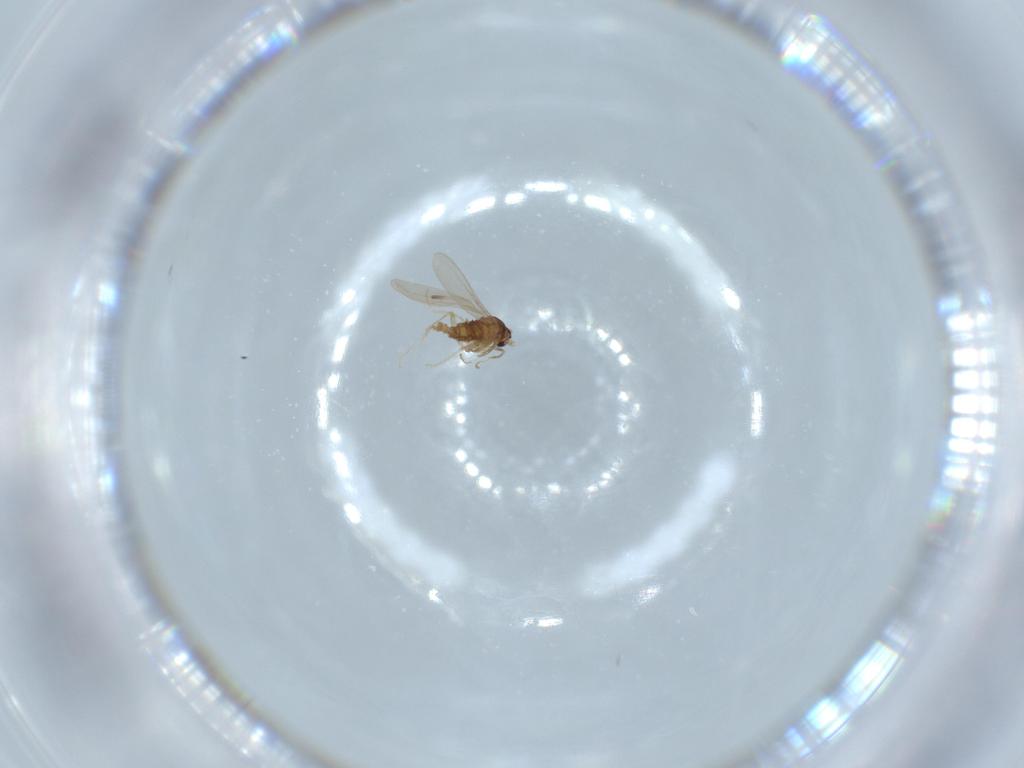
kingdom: Animalia
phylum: Arthropoda
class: Insecta
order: Diptera
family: Cecidomyiidae
